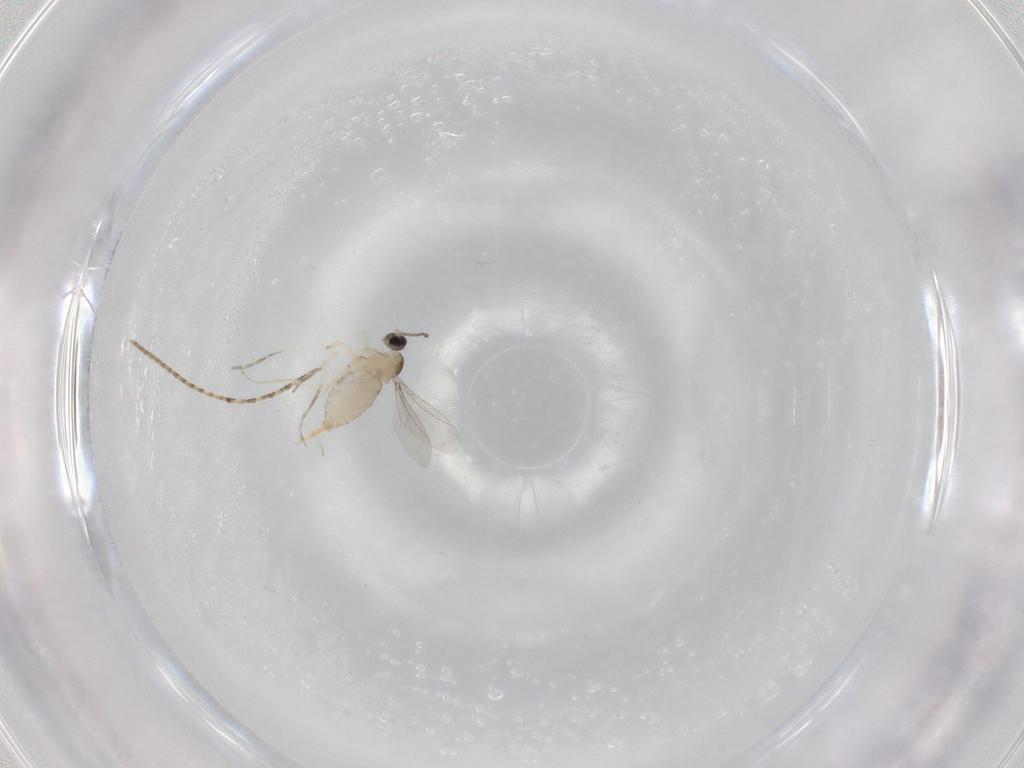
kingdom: Animalia
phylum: Arthropoda
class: Insecta
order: Diptera
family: Cecidomyiidae
